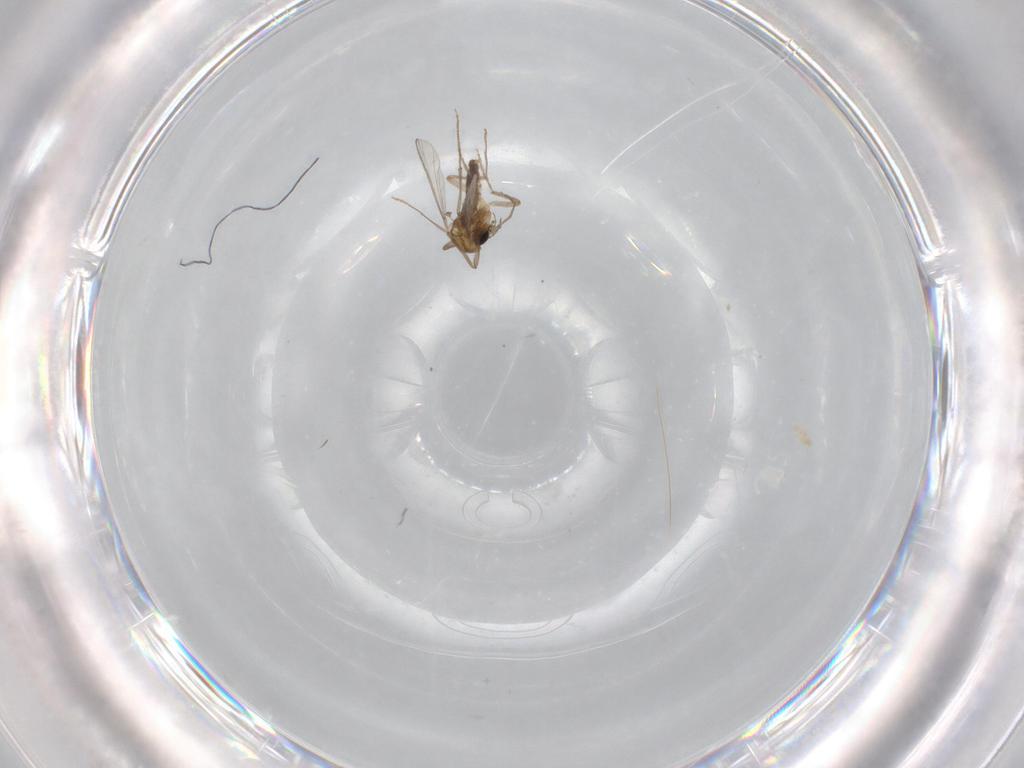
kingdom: Animalia
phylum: Arthropoda
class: Insecta
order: Diptera
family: Chironomidae
